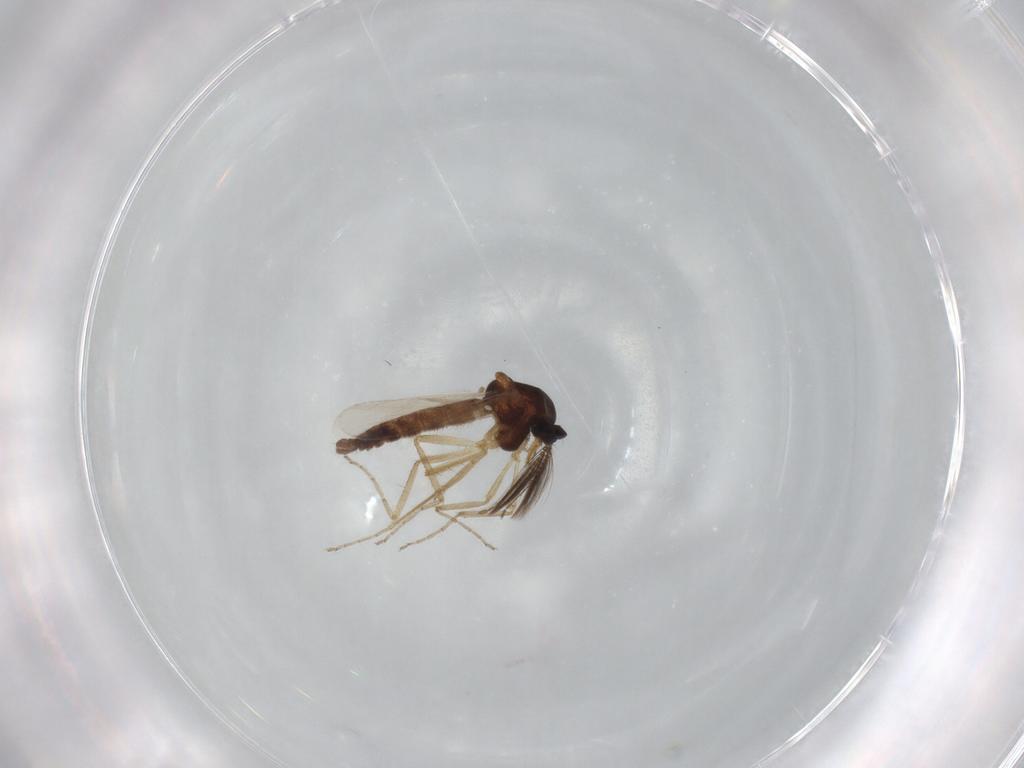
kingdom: Animalia
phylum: Arthropoda
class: Insecta
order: Diptera
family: Ceratopogonidae
